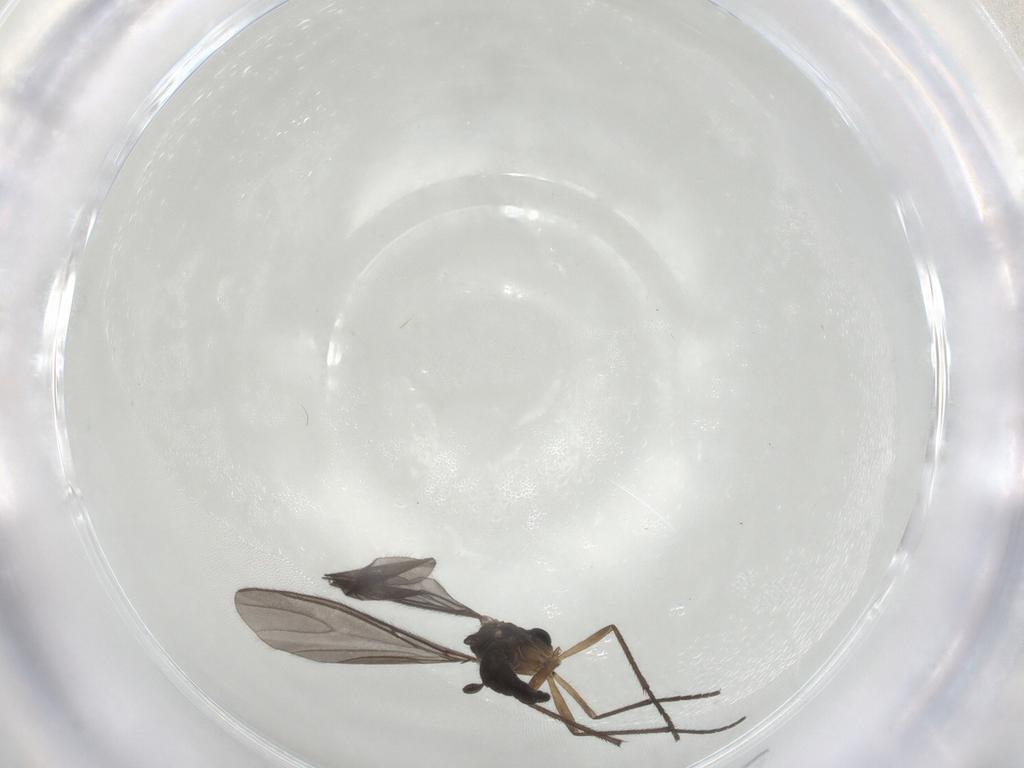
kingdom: Animalia
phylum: Arthropoda
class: Insecta
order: Diptera
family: Sciaridae
